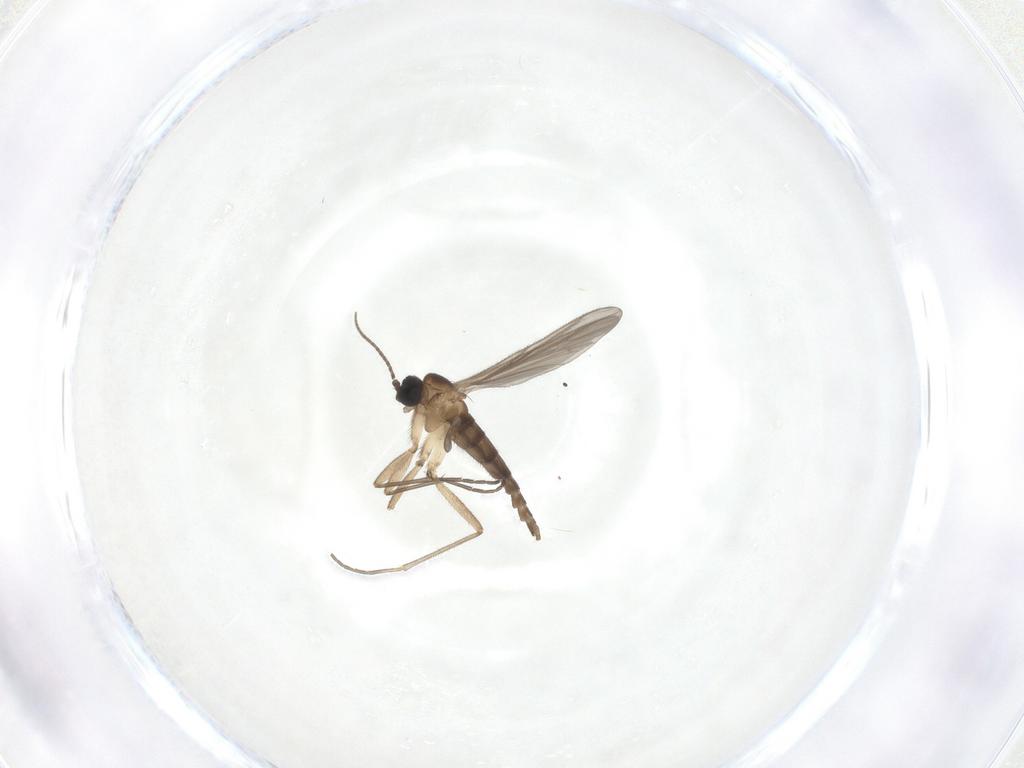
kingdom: Animalia
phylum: Arthropoda
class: Insecta
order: Diptera
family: Sciaridae
